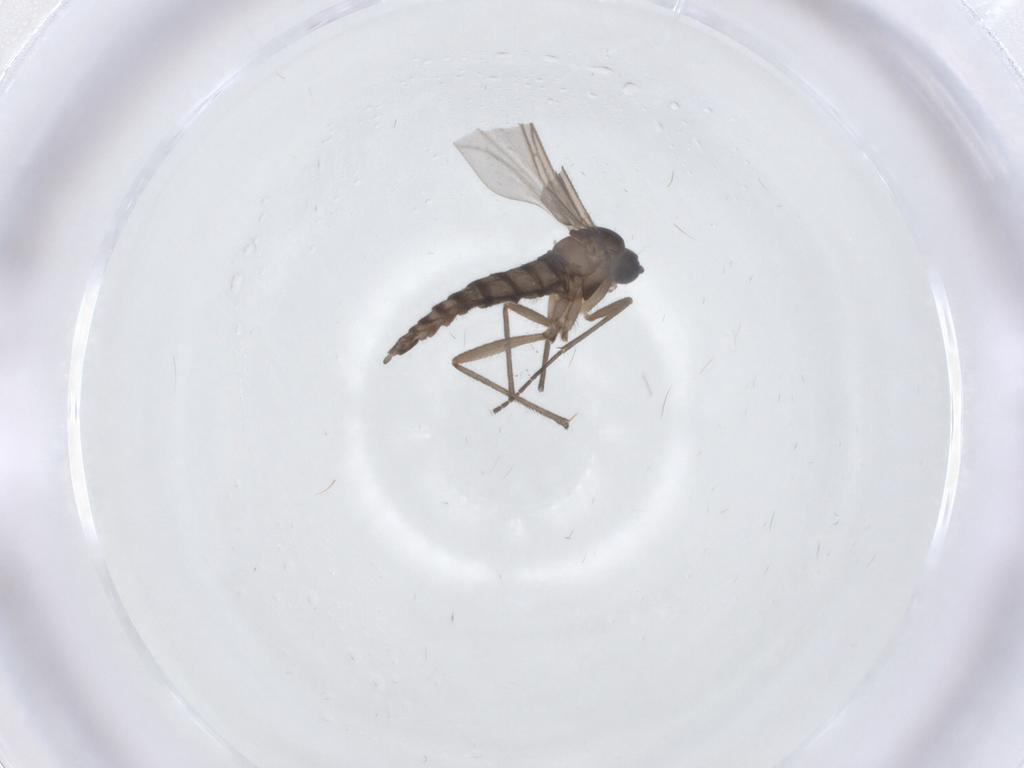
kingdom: Animalia
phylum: Arthropoda
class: Insecta
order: Diptera
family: Sciaridae
